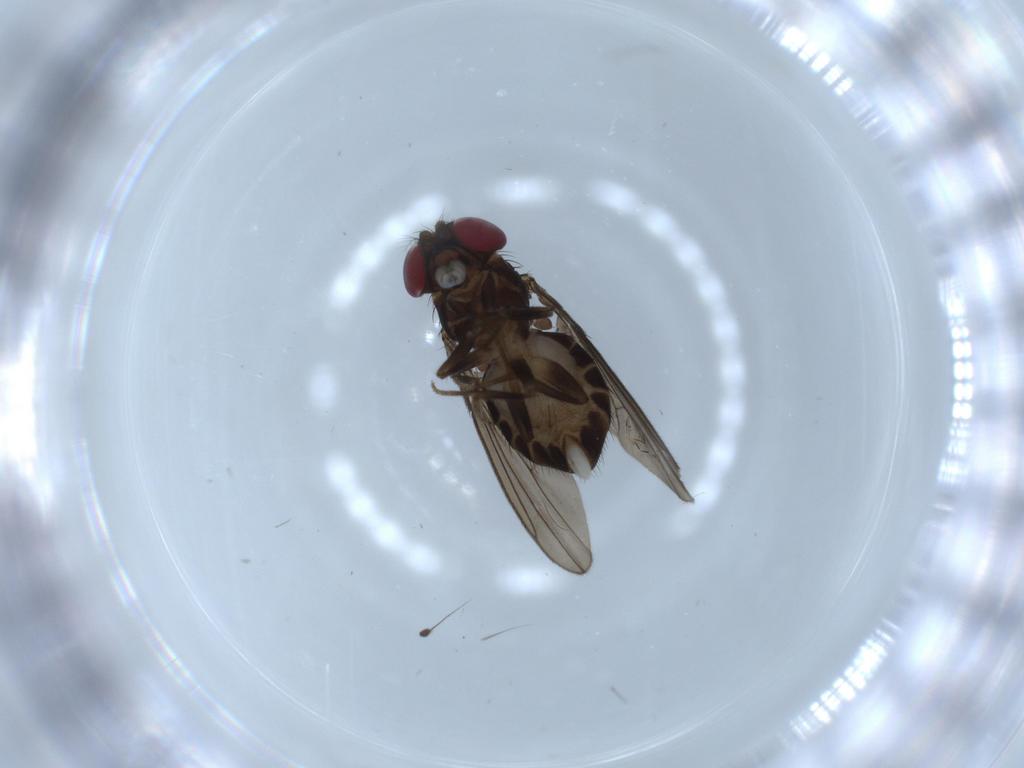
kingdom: Animalia
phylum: Arthropoda
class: Insecta
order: Diptera
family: Drosophilidae
